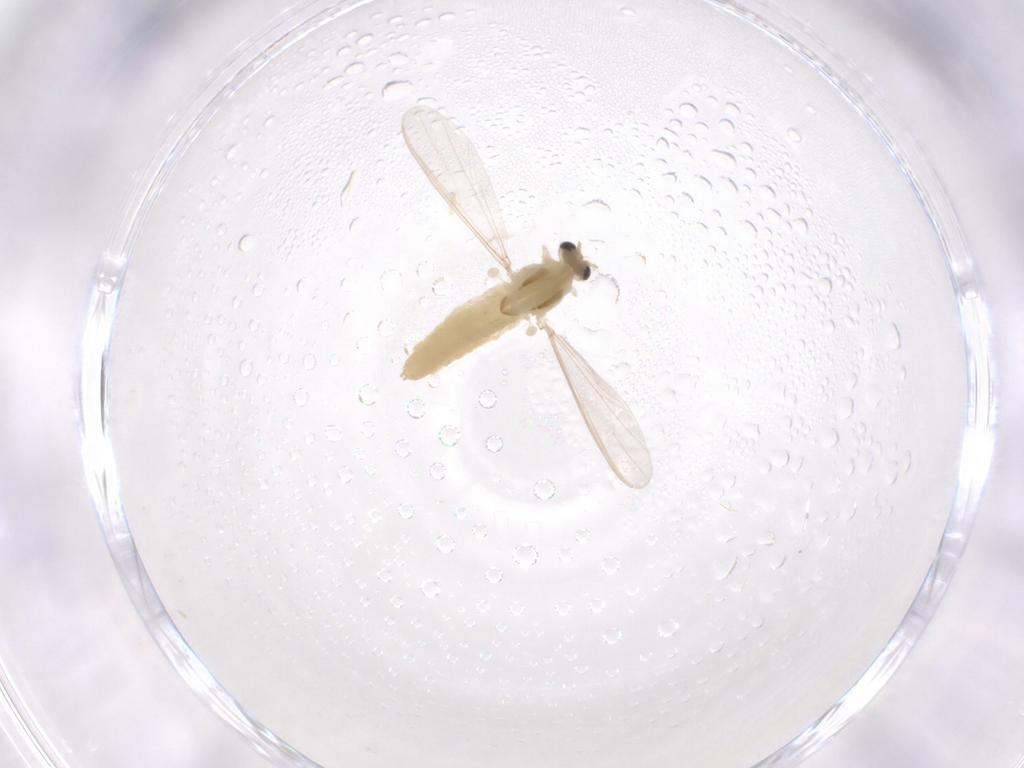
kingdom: Animalia
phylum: Arthropoda
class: Insecta
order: Diptera
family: Chironomidae
